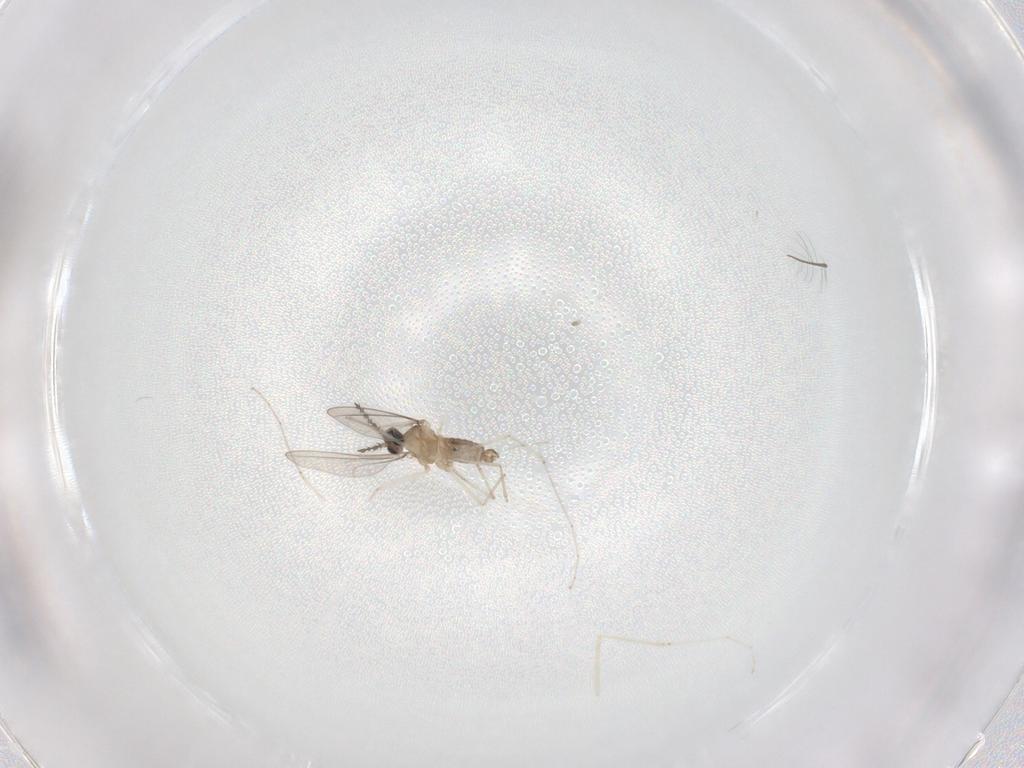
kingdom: Animalia
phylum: Arthropoda
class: Insecta
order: Diptera
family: Cecidomyiidae
